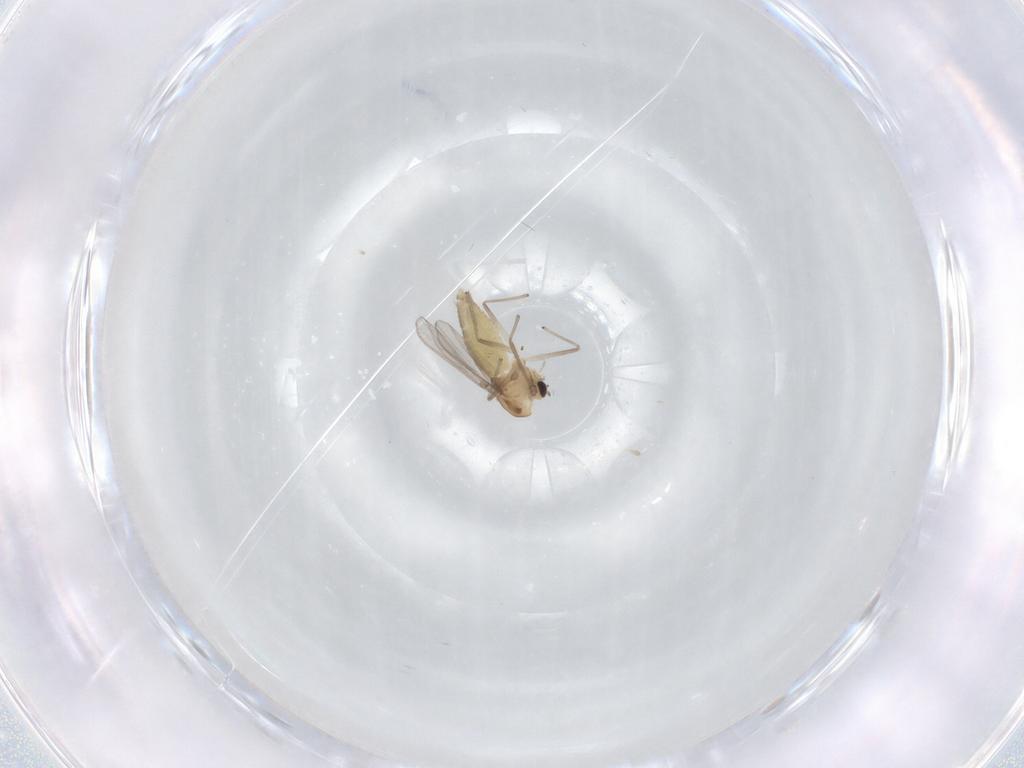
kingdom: Animalia
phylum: Arthropoda
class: Insecta
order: Diptera
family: Chironomidae
